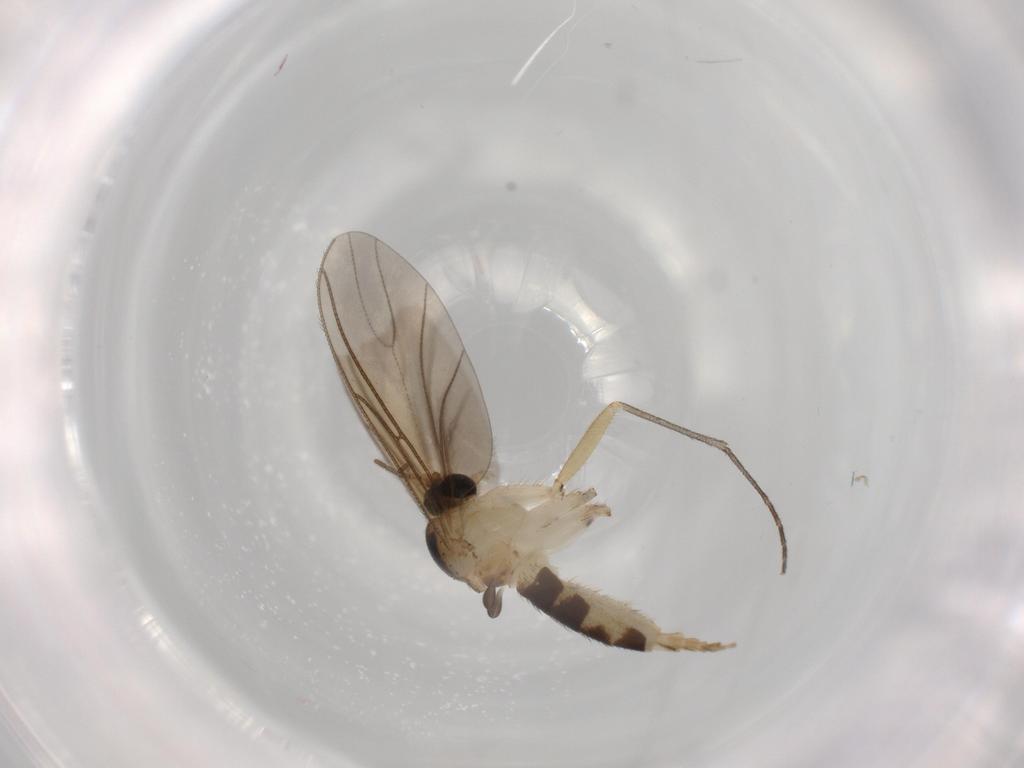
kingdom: Animalia
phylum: Arthropoda
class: Insecta
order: Diptera
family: Sciaridae
